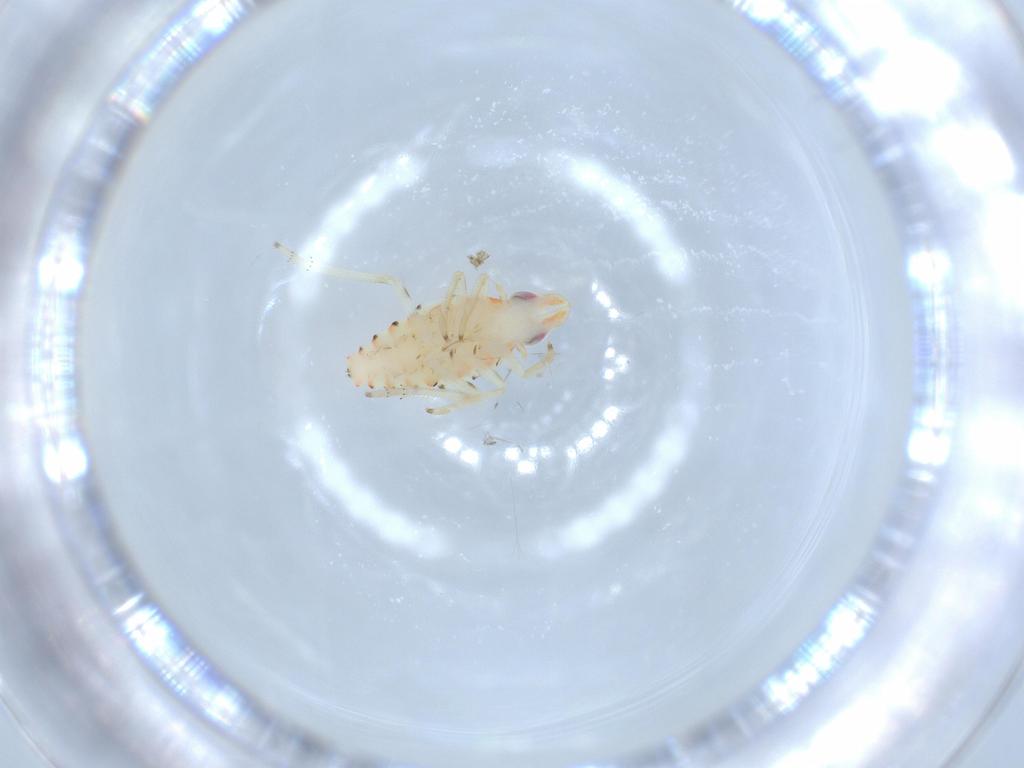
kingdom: Animalia
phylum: Arthropoda
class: Insecta
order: Hemiptera
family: Tropiduchidae
